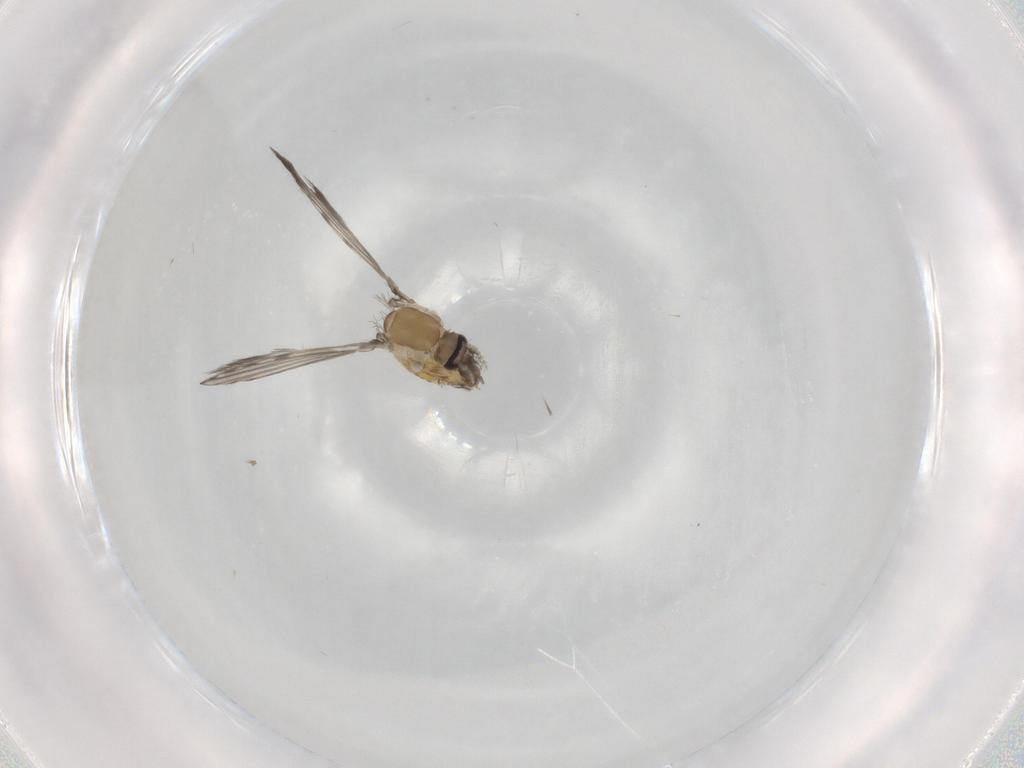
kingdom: Animalia
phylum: Arthropoda
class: Insecta
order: Diptera
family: Psychodidae
